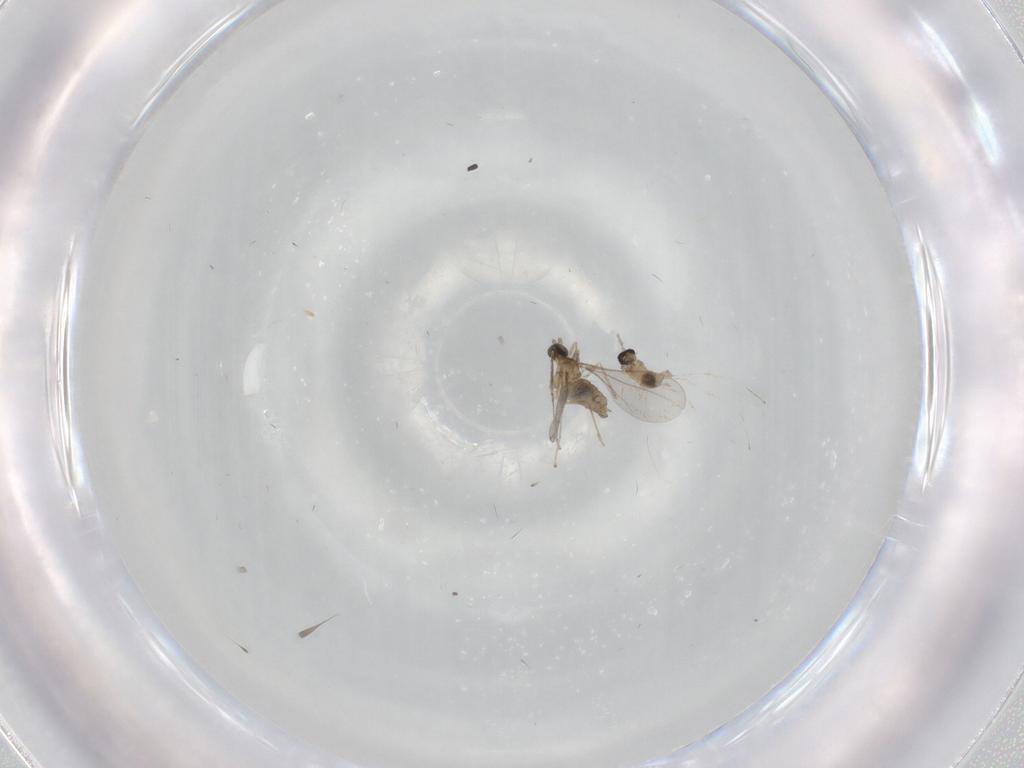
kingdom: Animalia
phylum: Arthropoda
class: Insecta
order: Diptera
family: Cecidomyiidae
